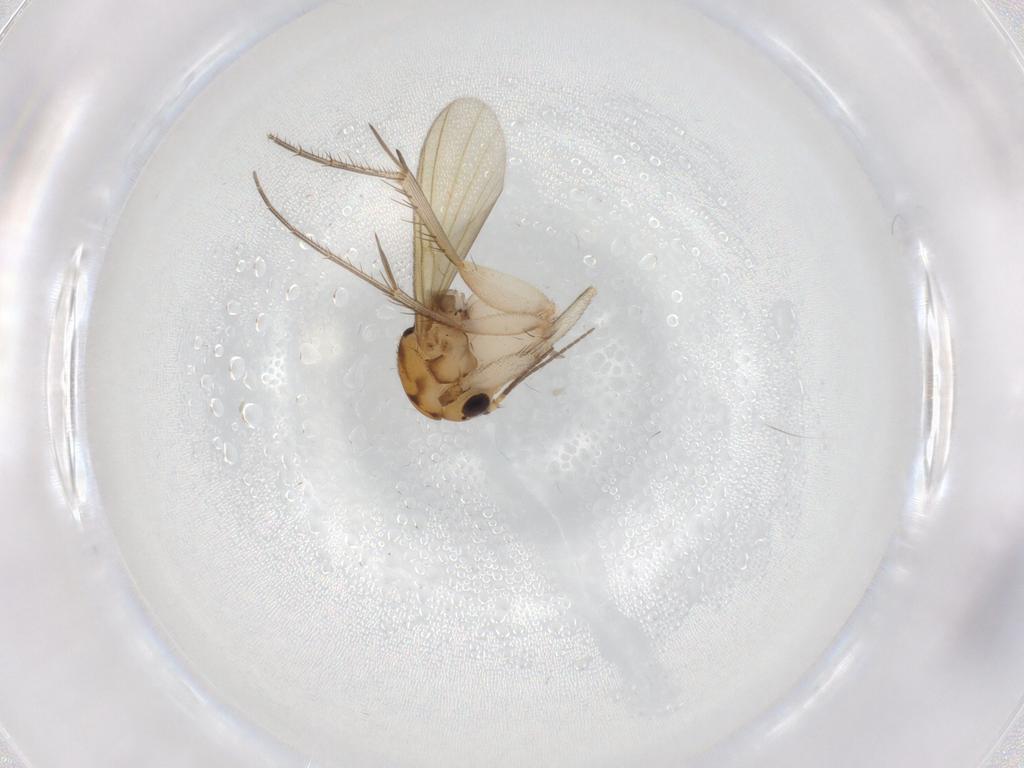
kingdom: Animalia
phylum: Arthropoda
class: Insecta
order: Diptera
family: Mycetophilidae
